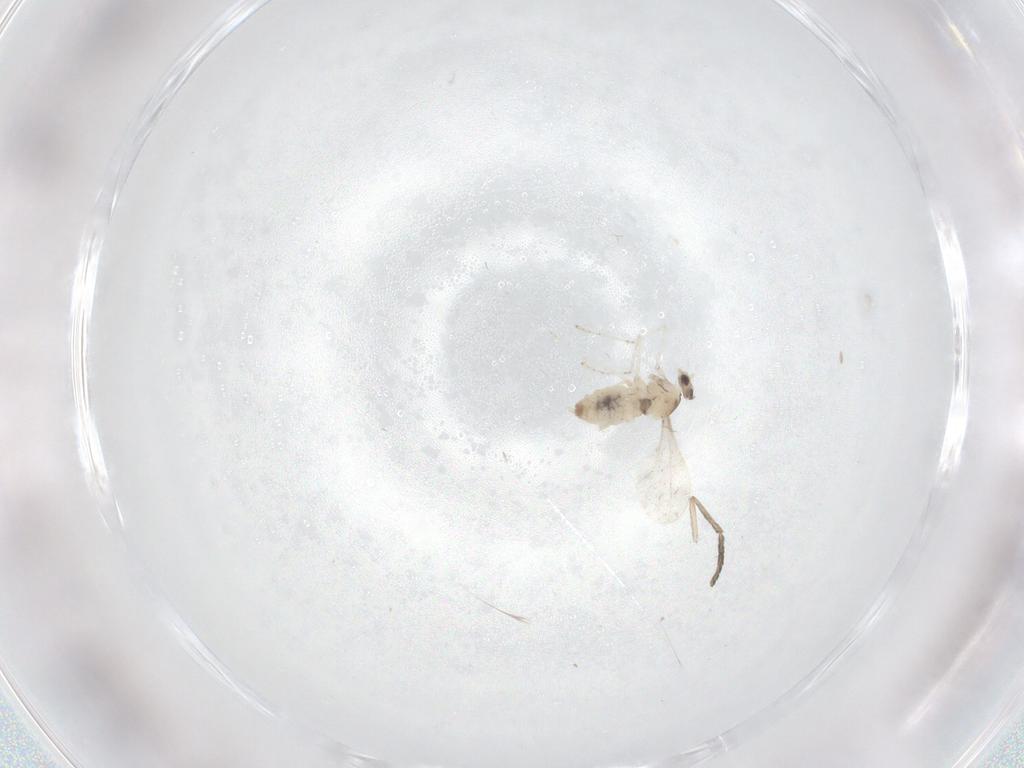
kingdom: Animalia
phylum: Arthropoda
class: Insecta
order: Diptera
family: Cecidomyiidae
